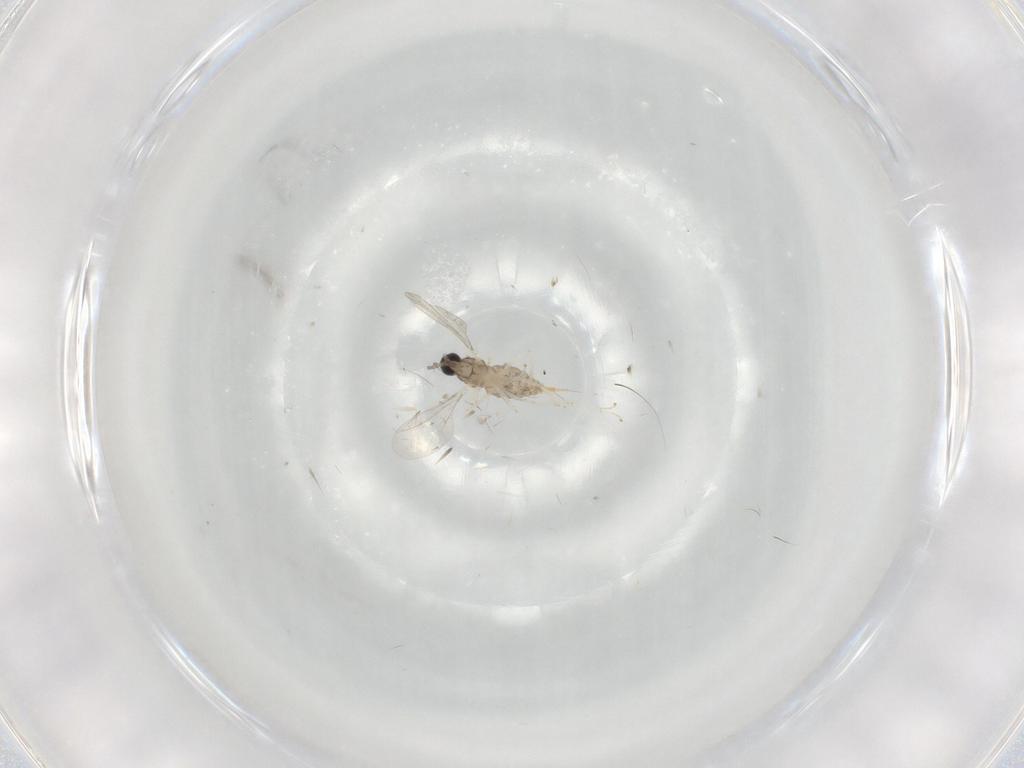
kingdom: Animalia
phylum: Arthropoda
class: Insecta
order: Diptera
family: Cecidomyiidae
